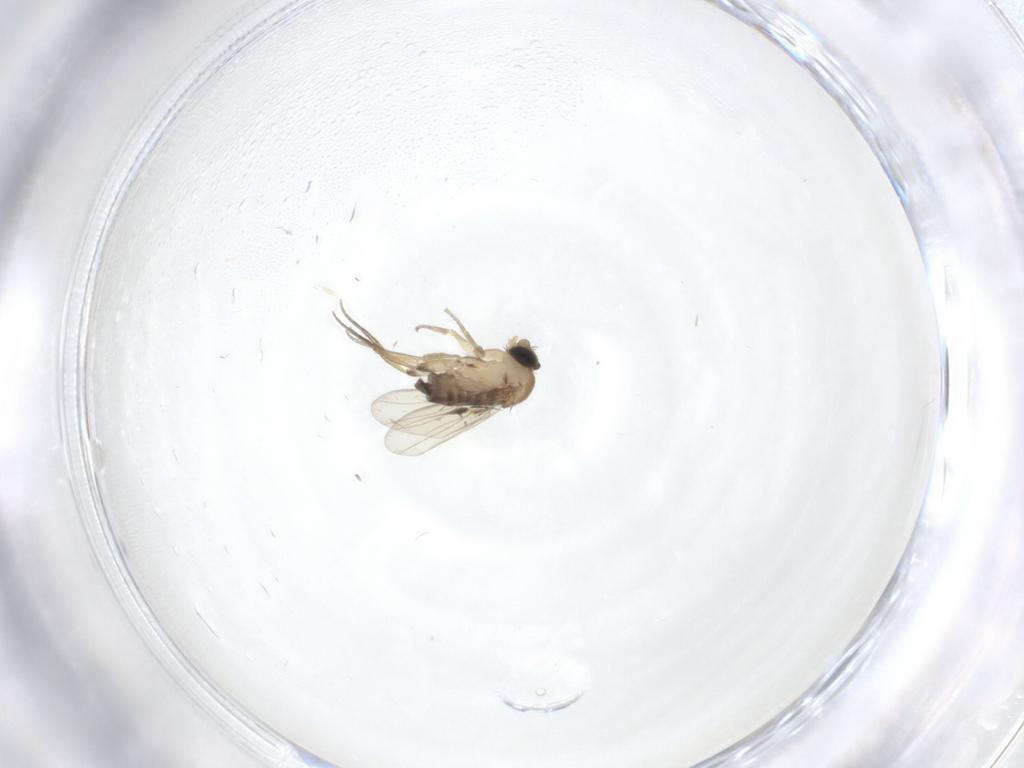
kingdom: Animalia
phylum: Arthropoda
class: Insecta
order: Diptera
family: Phoridae
